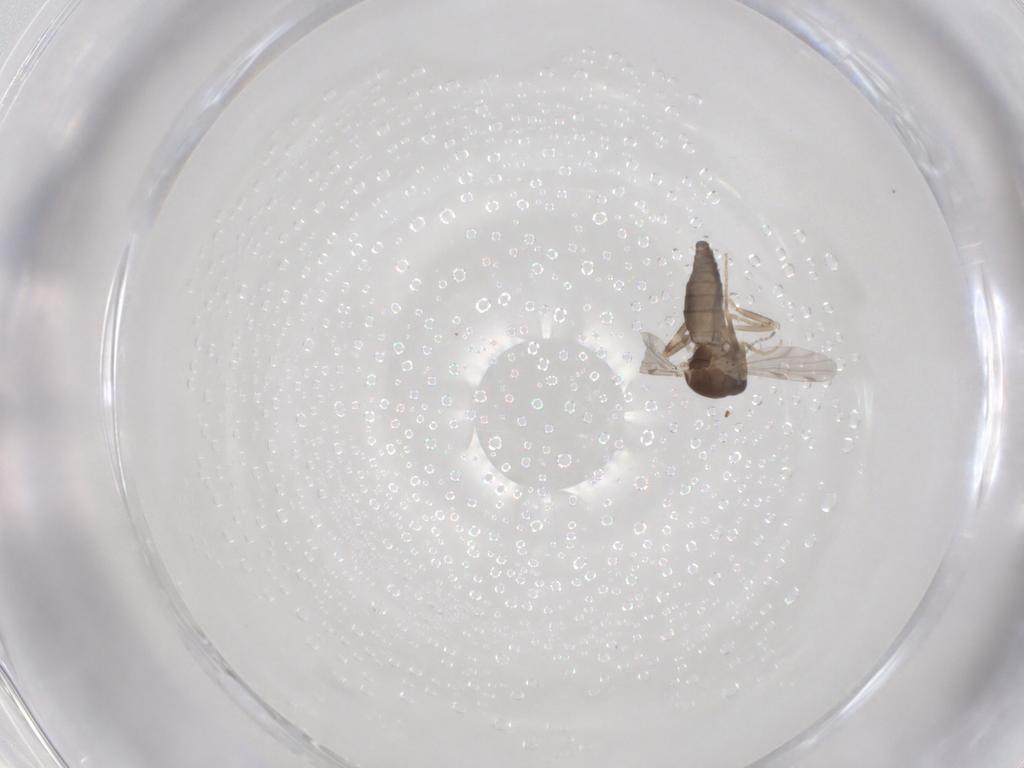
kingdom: Animalia
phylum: Arthropoda
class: Insecta
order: Diptera
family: Ceratopogonidae
